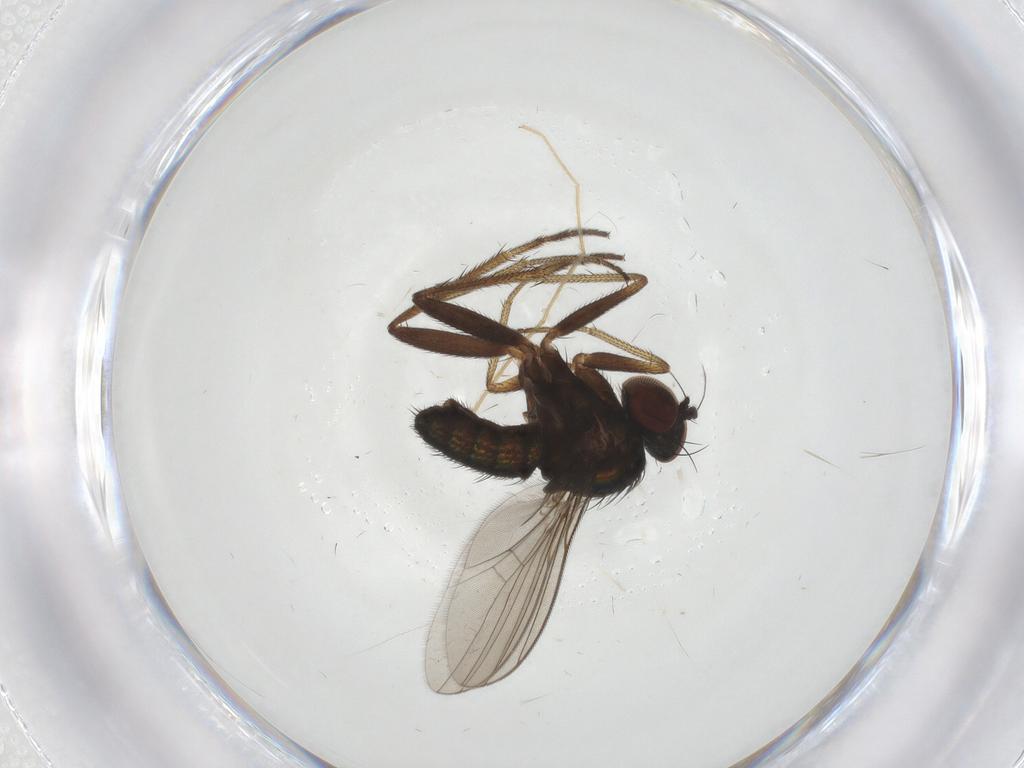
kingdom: Animalia
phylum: Arthropoda
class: Insecta
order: Diptera
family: Dolichopodidae
